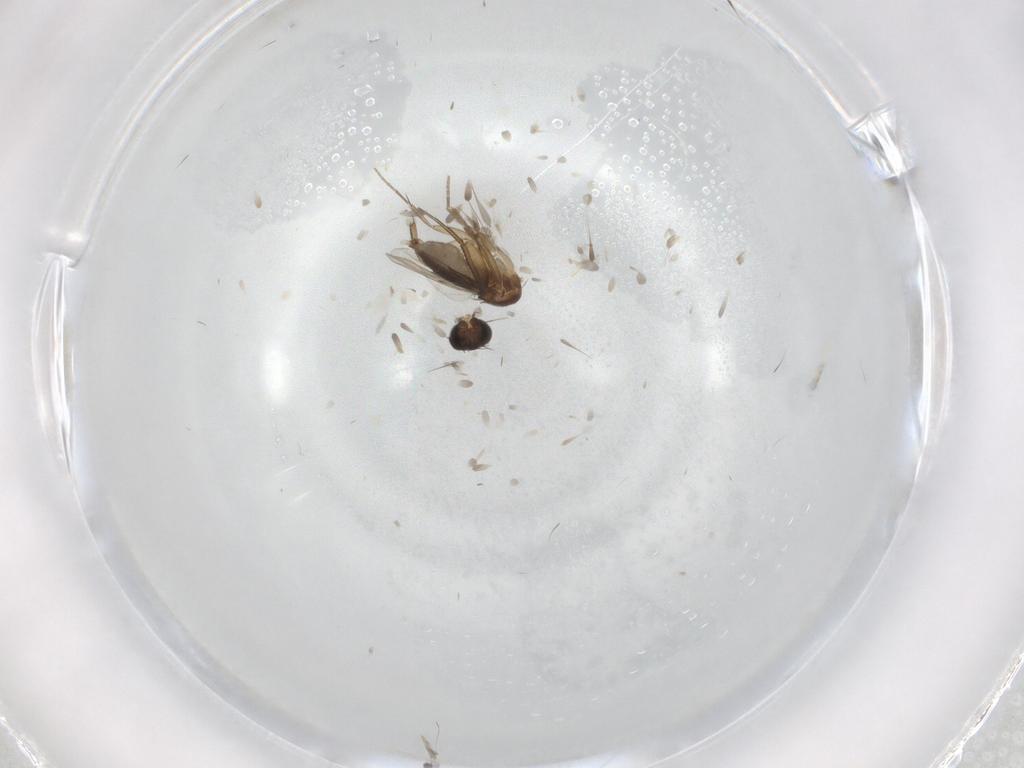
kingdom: Animalia
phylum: Arthropoda
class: Insecta
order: Diptera
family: Phoridae
